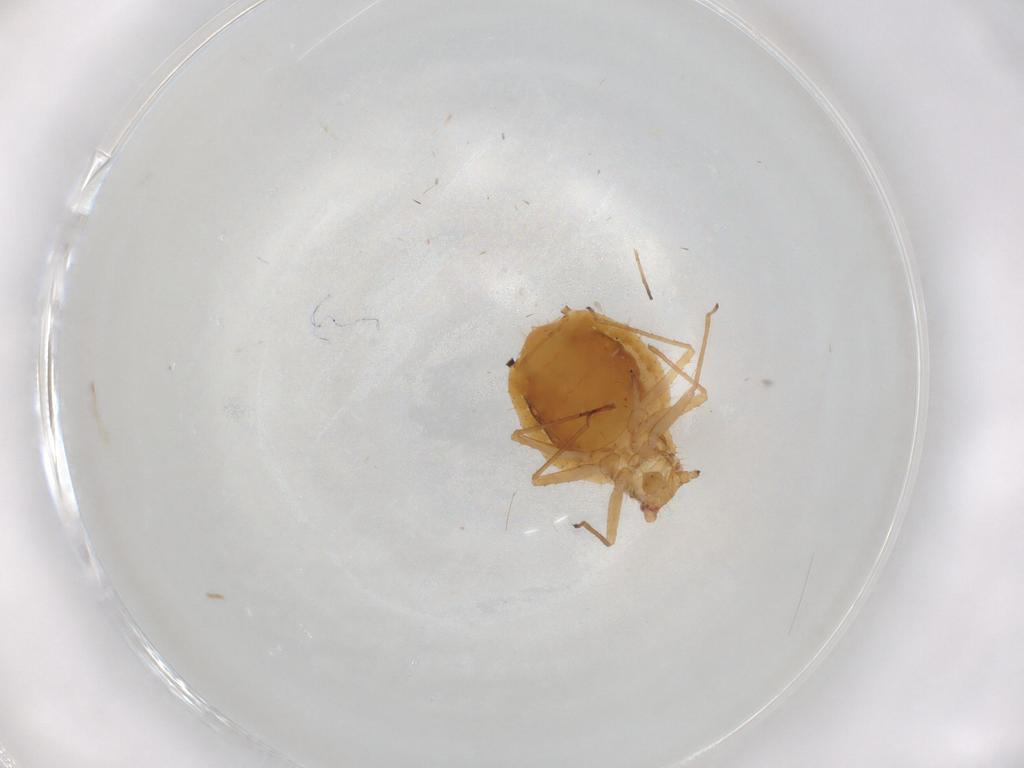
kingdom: Animalia
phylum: Arthropoda
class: Insecta
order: Hemiptera
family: Aphididae
